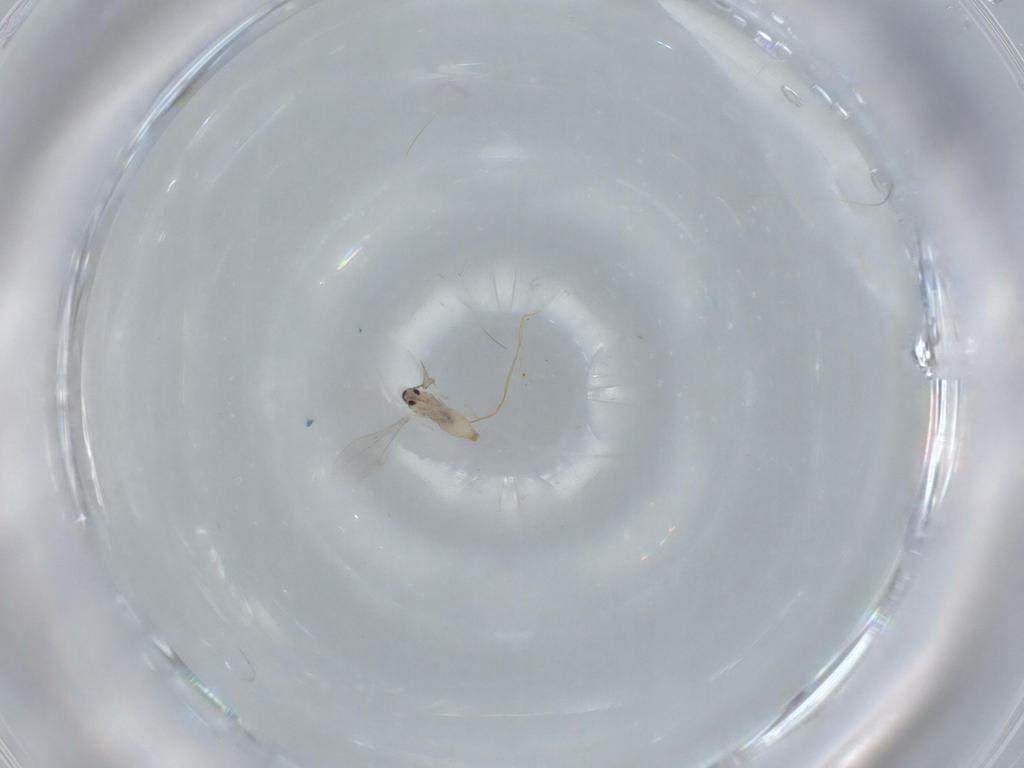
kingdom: Animalia
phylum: Arthropoda
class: Insecta
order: Diptera
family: Cecidomyiidae
